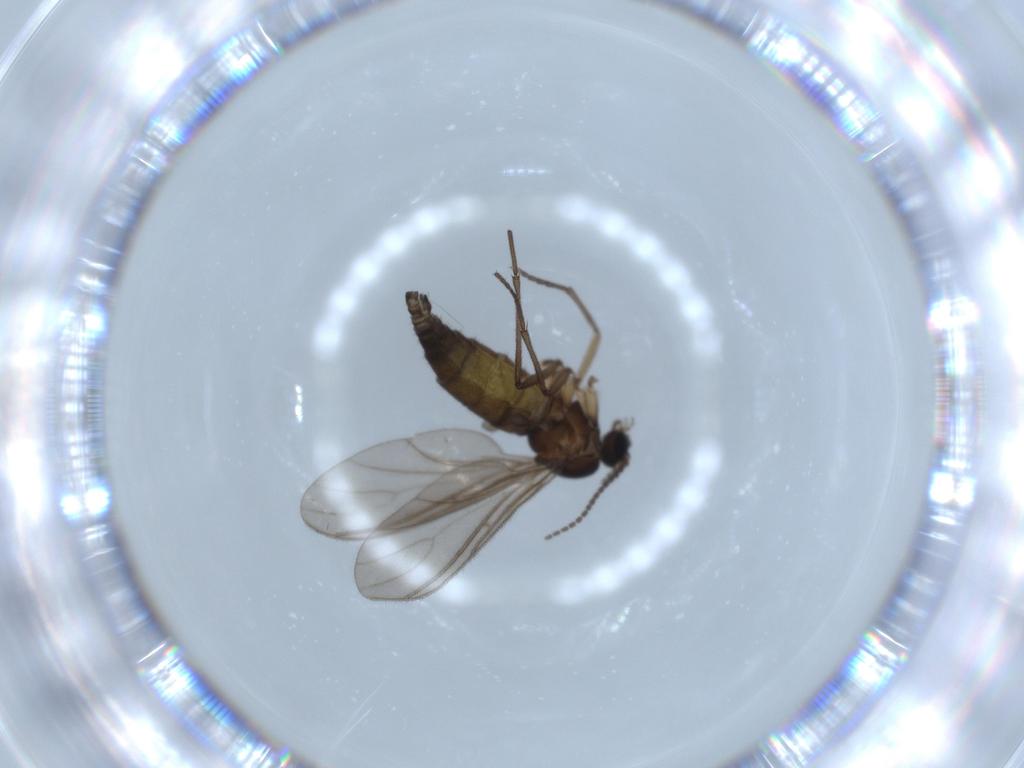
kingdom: Animalia
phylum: Arthropoda
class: Insecta
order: Diptera
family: Sciaridae
